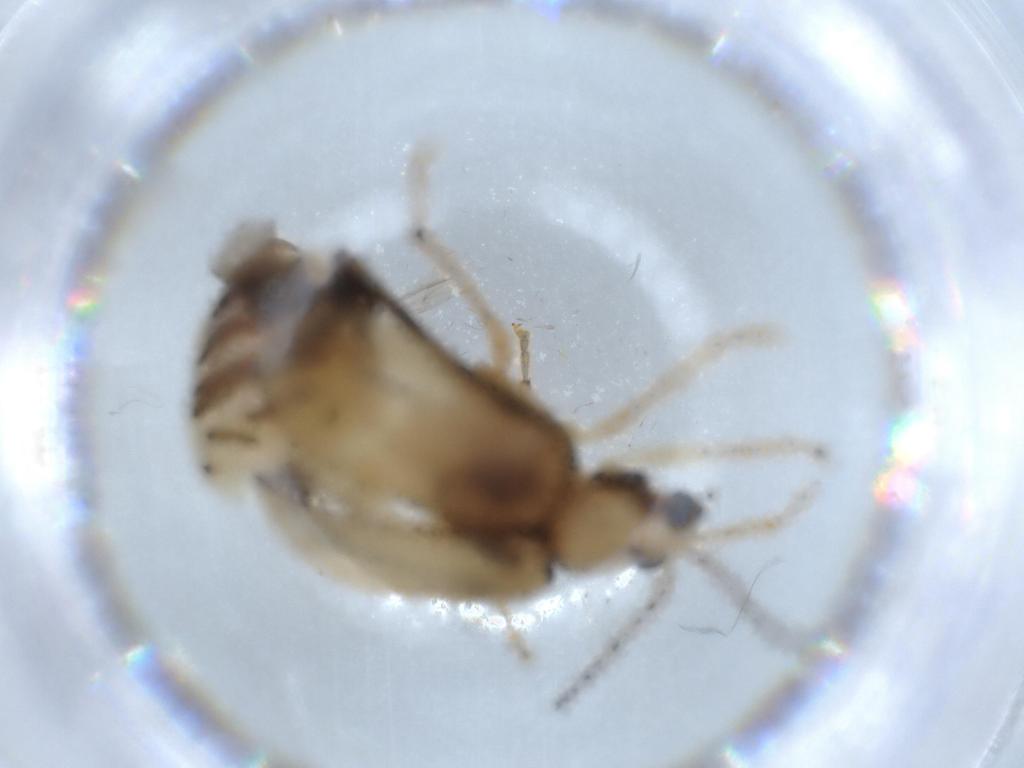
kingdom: Animalia
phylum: Arthropoda
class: Insecta
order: Coleoptera
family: Chrysomelidae
